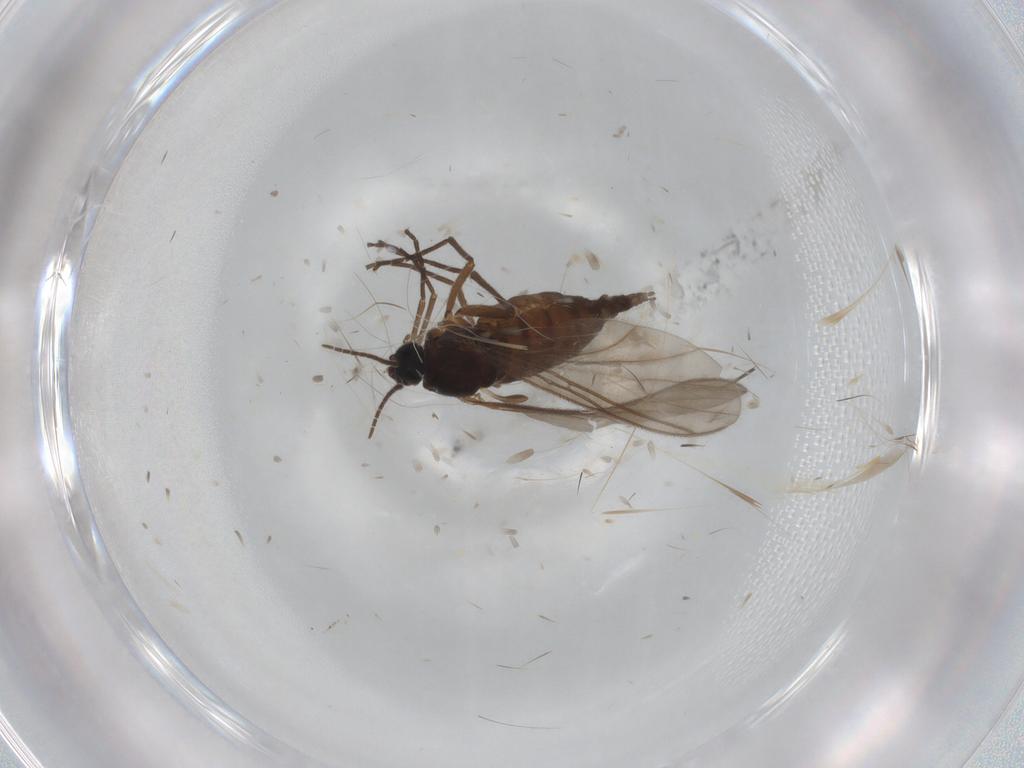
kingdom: Animalia
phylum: Arthropoda
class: Insecta
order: Diptera
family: Sciaridae
